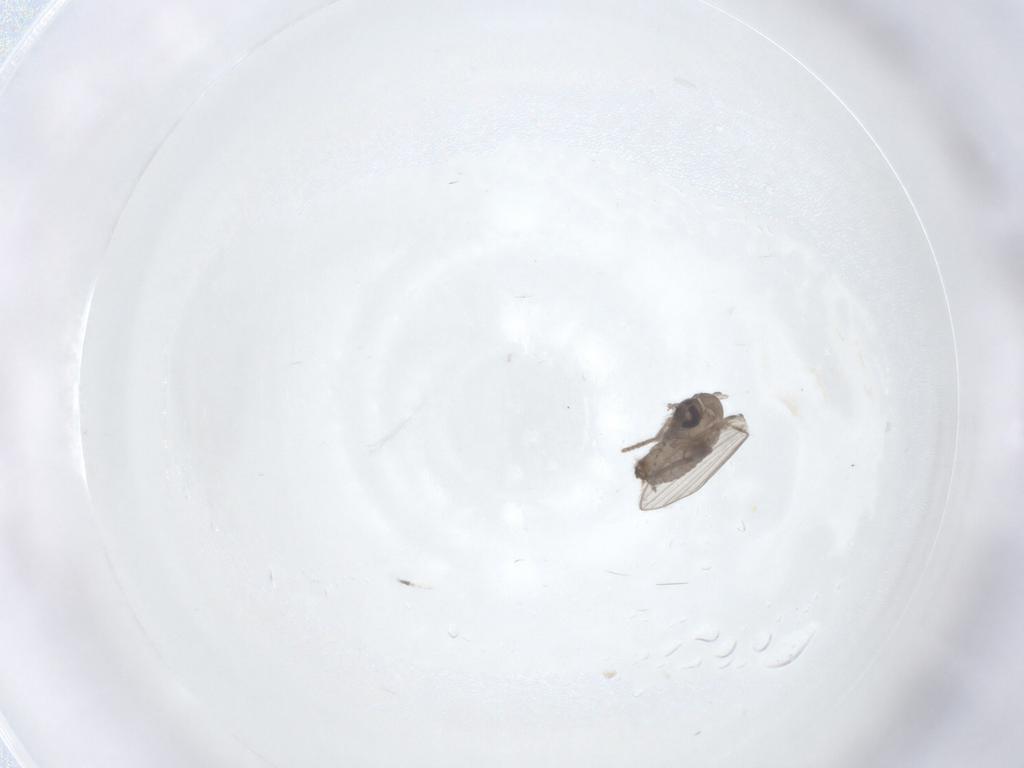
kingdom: Animalia
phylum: Arthropoda
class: Insecta
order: Diptera
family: Psychodidae
